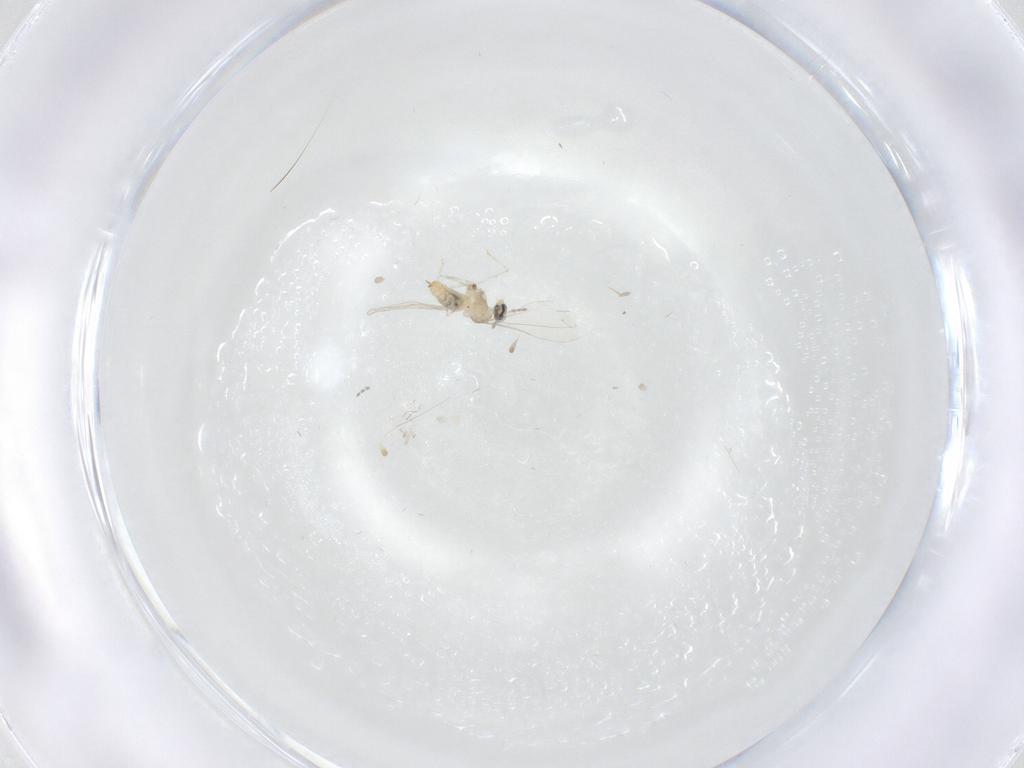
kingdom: Animalia
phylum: Arthropoda
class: Insecta
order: Diptera
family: Cecidomyiidae
